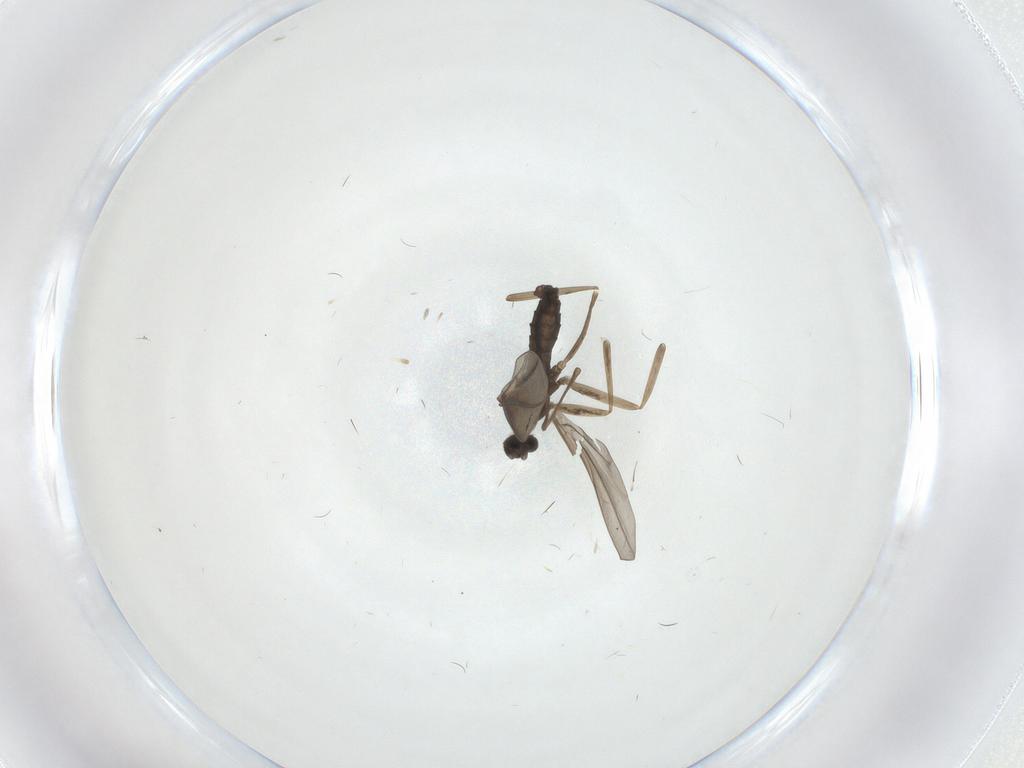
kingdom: Animalia
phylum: Arthropoda
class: Insecta
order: Diptera
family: Cecidomyiidae
